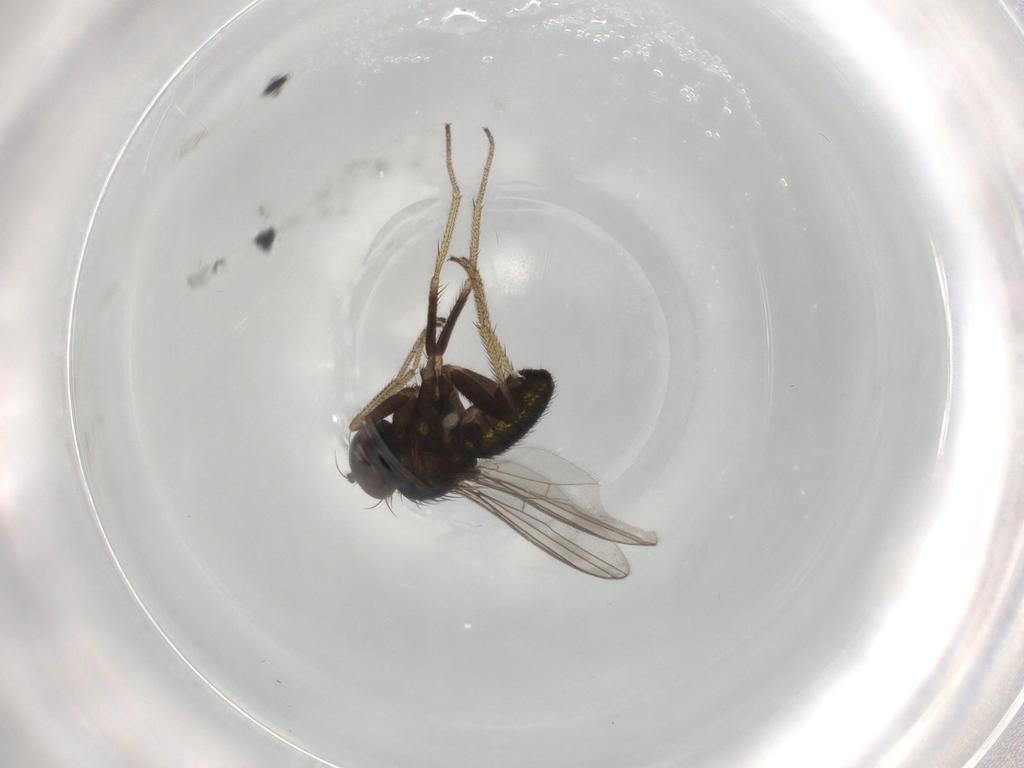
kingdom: Animalia
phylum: Arthropoda
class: Insecta
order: Diptera
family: Dolichopodidae
